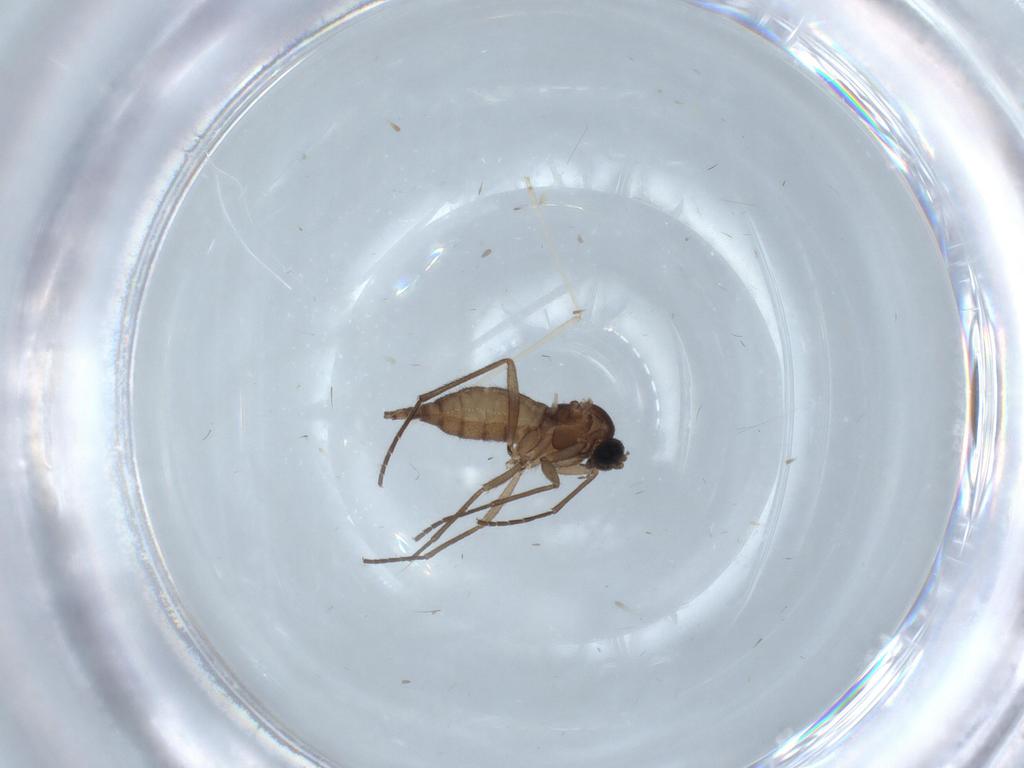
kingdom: Animalia
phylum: Arthropoda
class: Insecta
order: Diptera
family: Sciaridae
